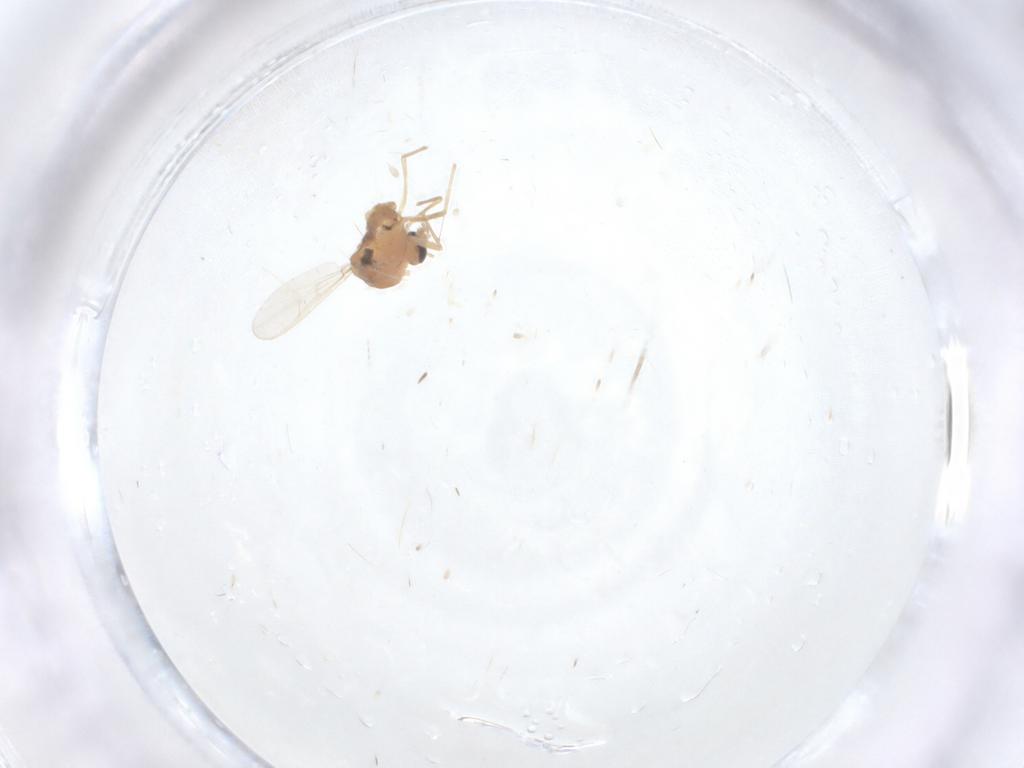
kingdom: Animalia
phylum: Arthropoda
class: Insecta
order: Diptera
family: Chironomidae
